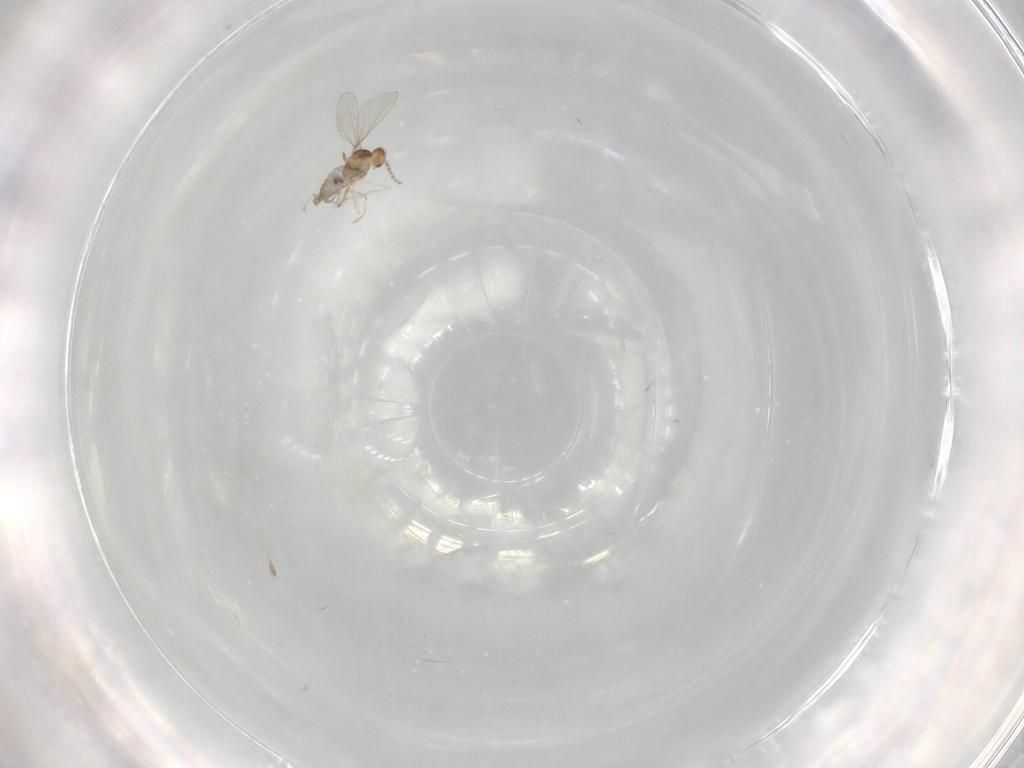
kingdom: Animalia
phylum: Arthropoda
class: Insecta
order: Diptera
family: Cecidomyiidae
